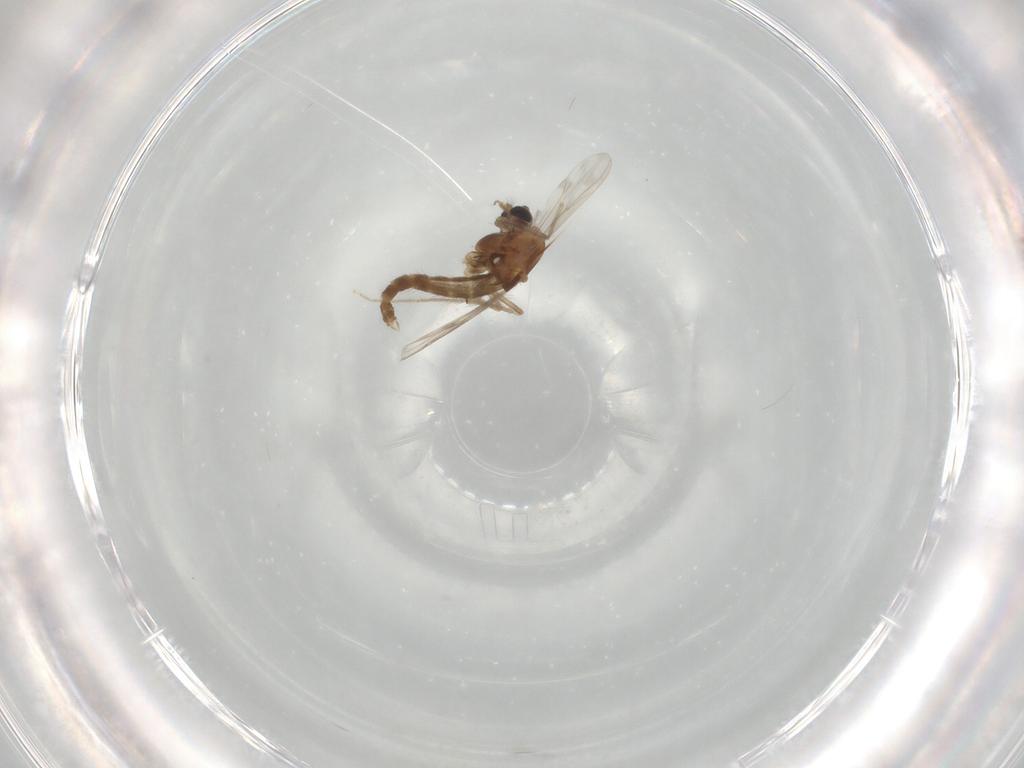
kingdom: Animalia
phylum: Arthropoda
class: Insecta
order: Diptera
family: Chironomidae
